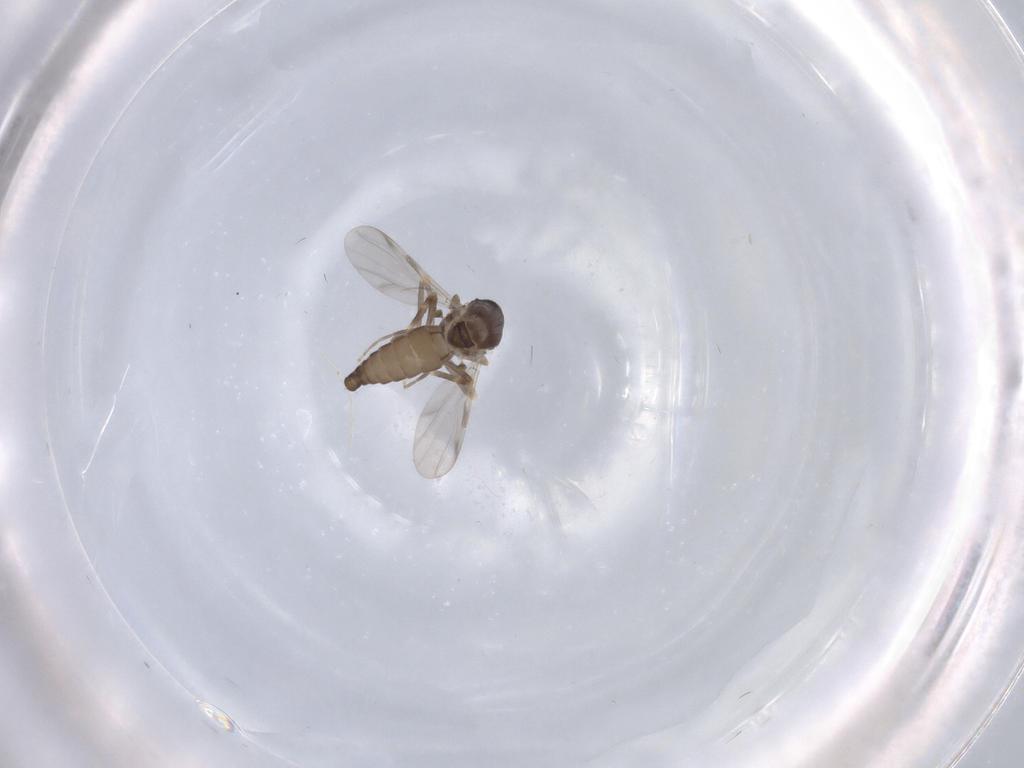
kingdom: Animalia
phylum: Arthropoda
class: Insecta
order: Diptera
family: Ceratopogonidae
